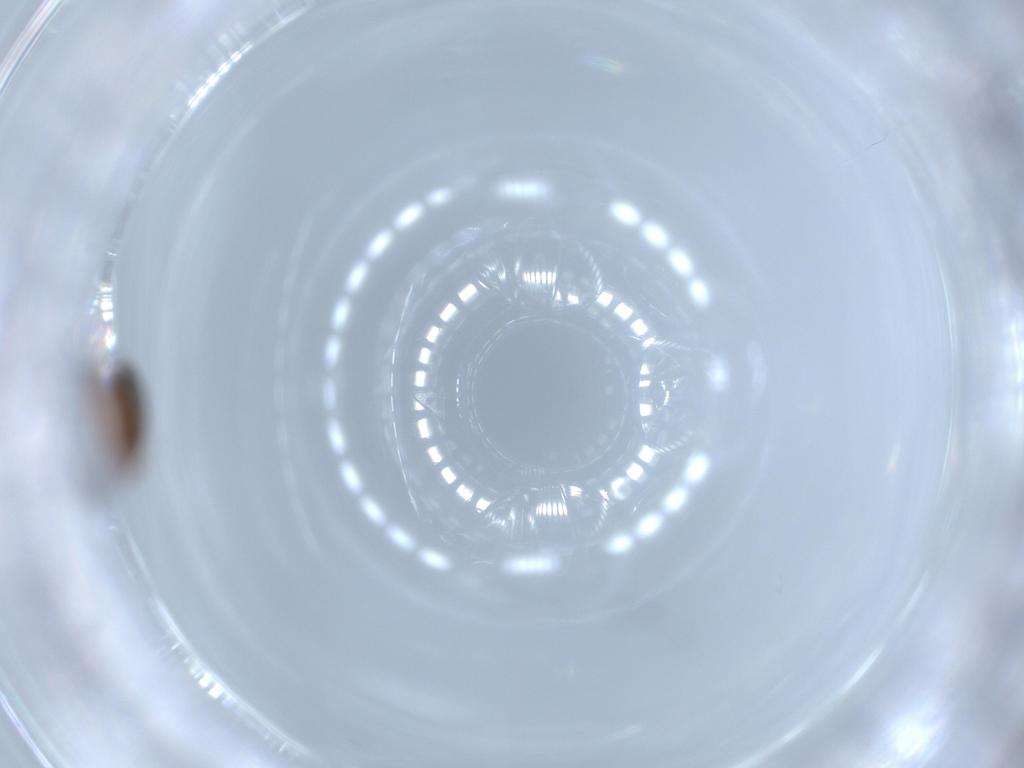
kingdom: Animalia
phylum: Arthropoda
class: Insecta
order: Hymenoptera
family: Crabronidae
